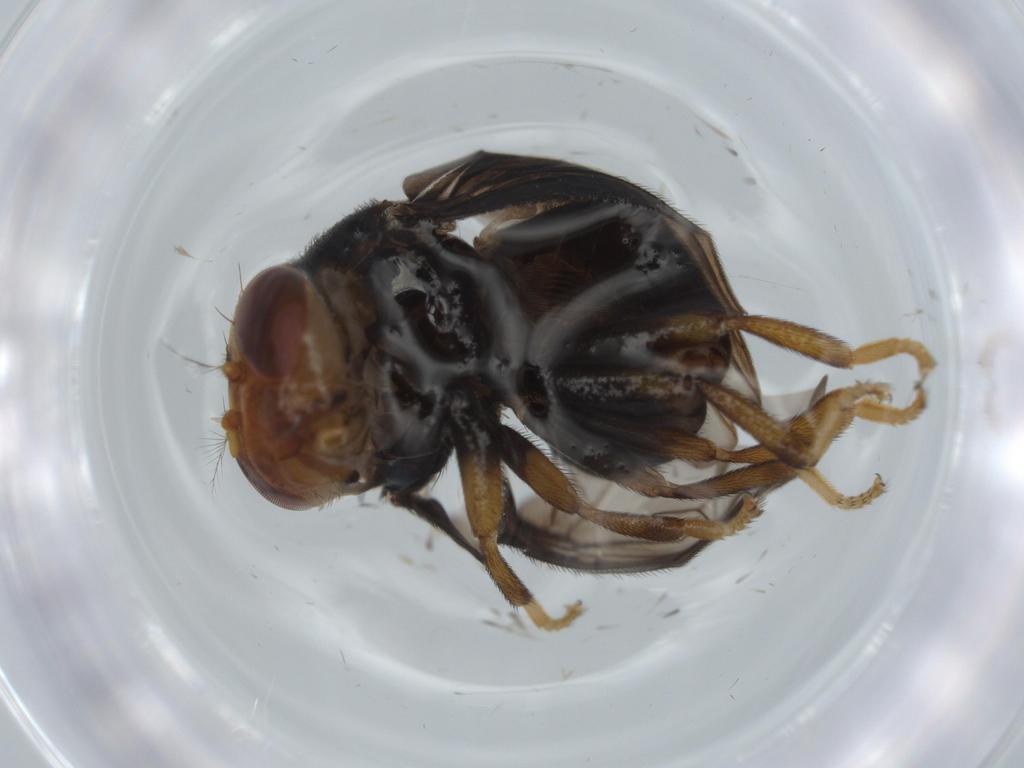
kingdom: Animalia
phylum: Arthropoda
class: Insecta
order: Diptera
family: Ulidiidae
